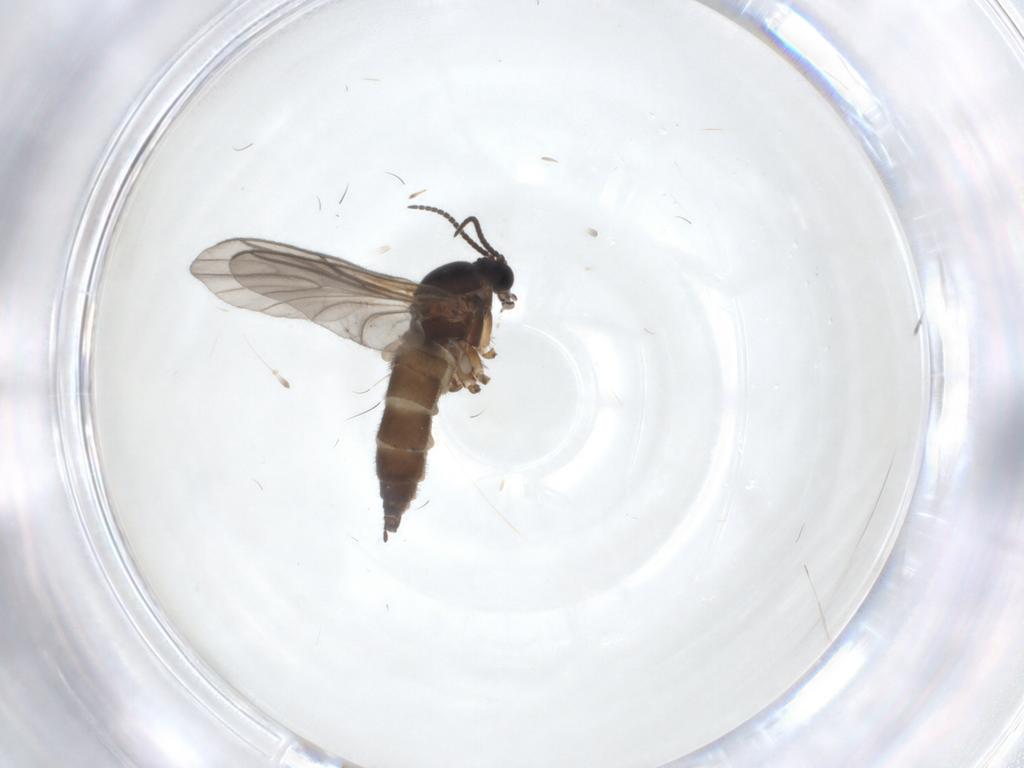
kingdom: Animalia
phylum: Arthropoda
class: Insecta
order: Diptera
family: Sciaridae
